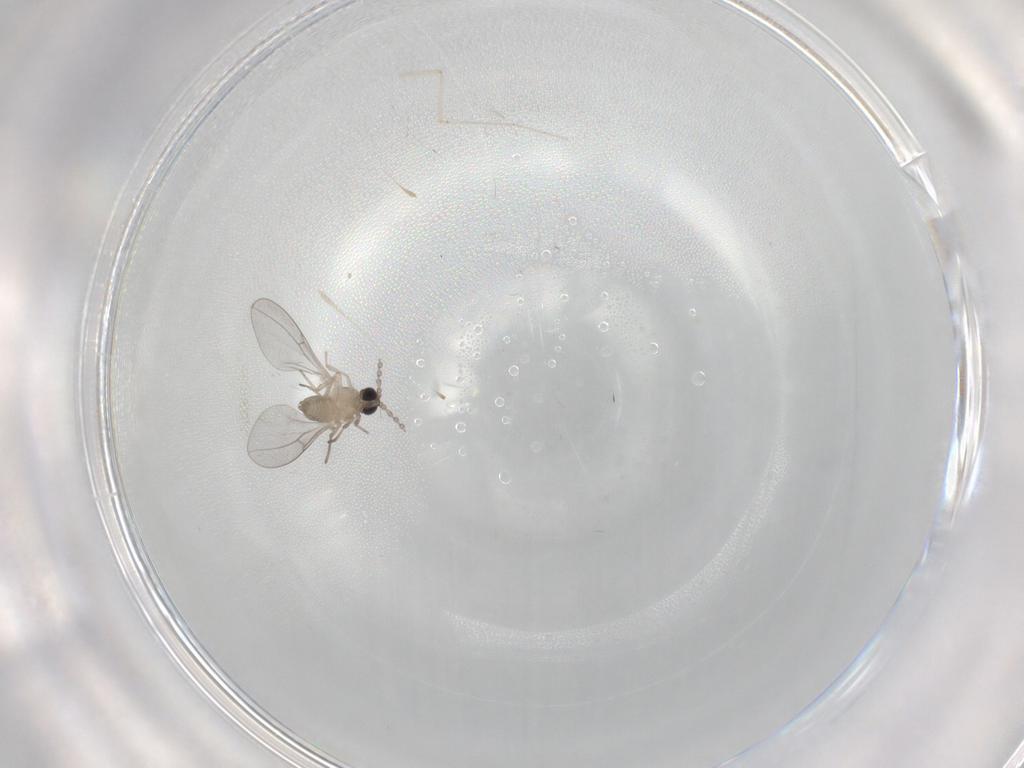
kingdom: Animalia
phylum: Arthropoda
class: Insecta
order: Diptera
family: Cecidomyiidae
